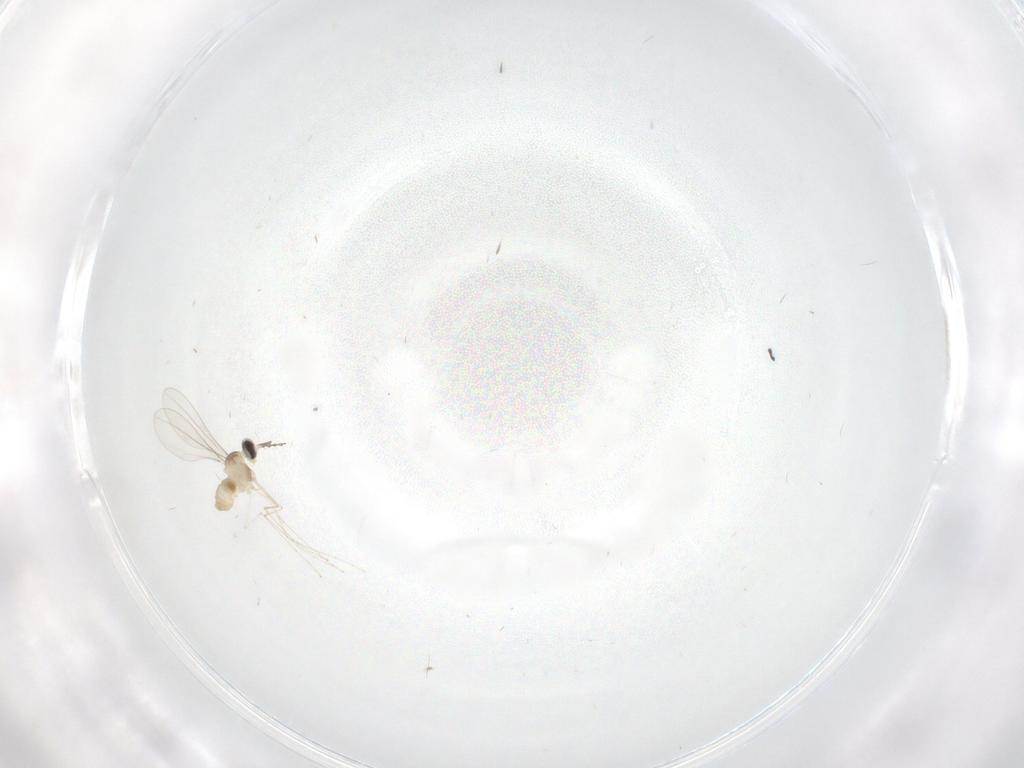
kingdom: Animalia
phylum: Arthropoda
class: Insecta
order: Diptera
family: Cecidomyiidae
